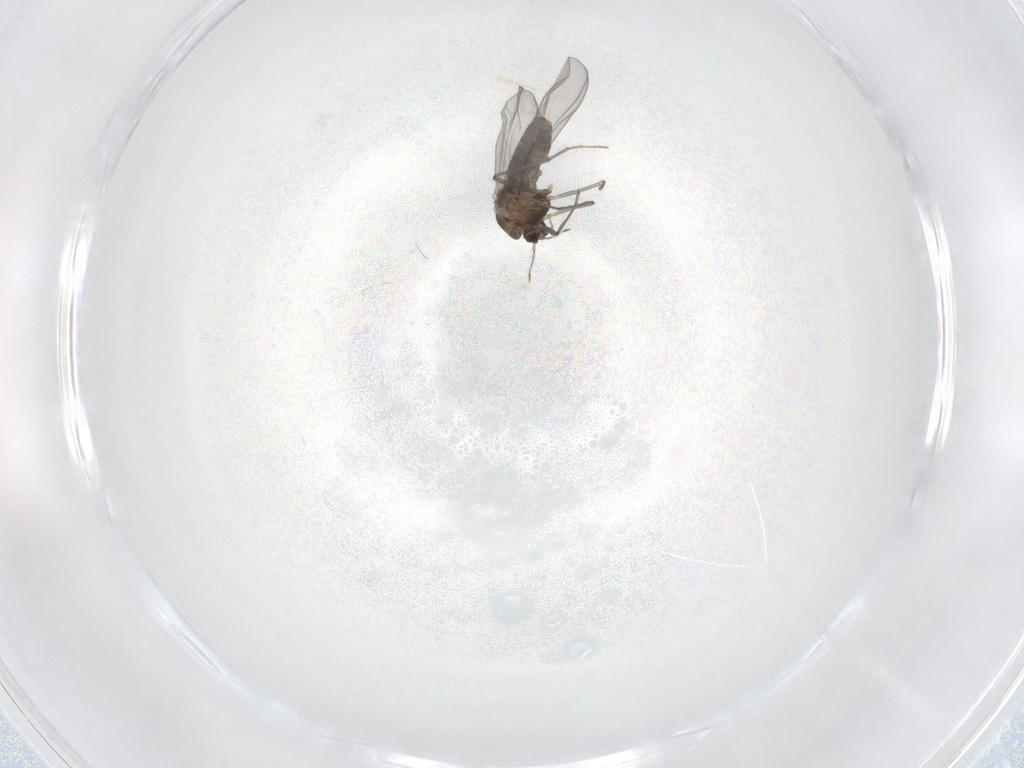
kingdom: Animalia
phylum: Arthropoda
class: Insecta
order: Diptera
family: Chironomidae
